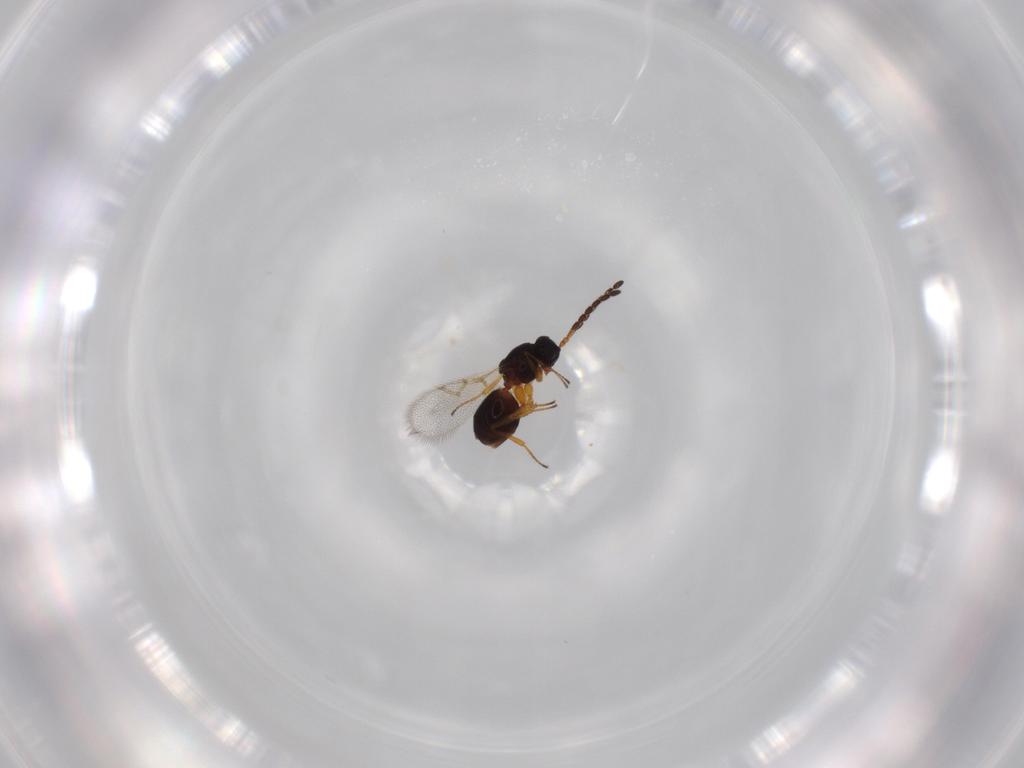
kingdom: Animalia
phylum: Arthropoda
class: Insecta
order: Hymenoptera
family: Figitidae
